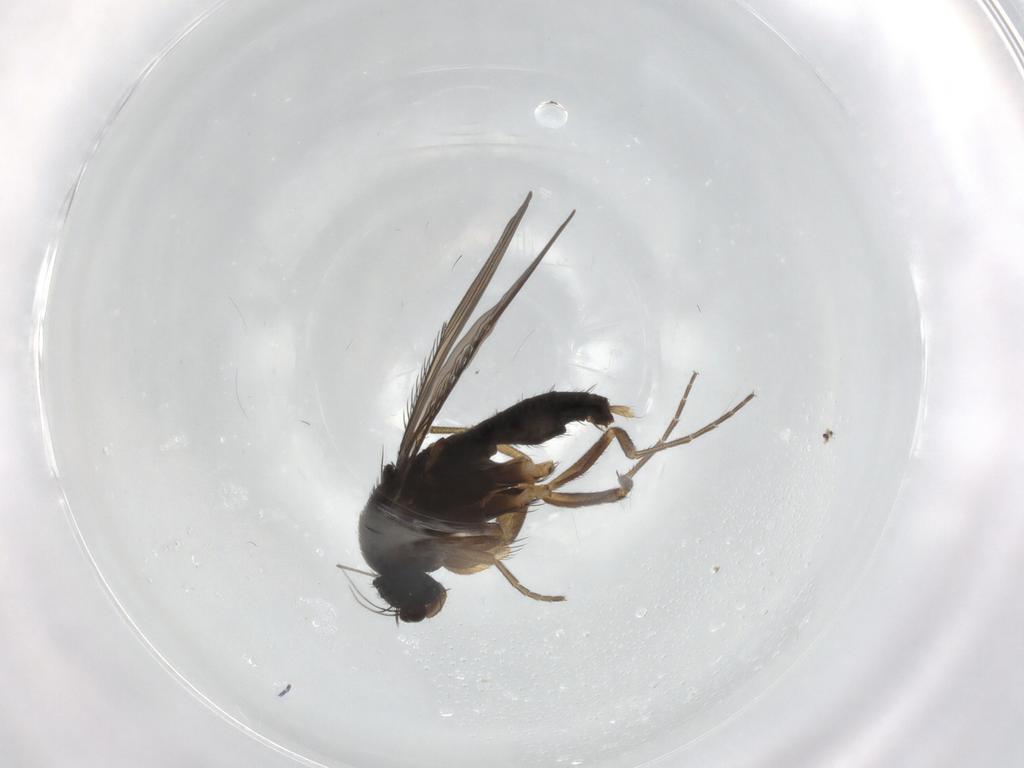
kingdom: Animalia
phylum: Arthropoda
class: Insecta
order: Diptera
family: Phoridae
